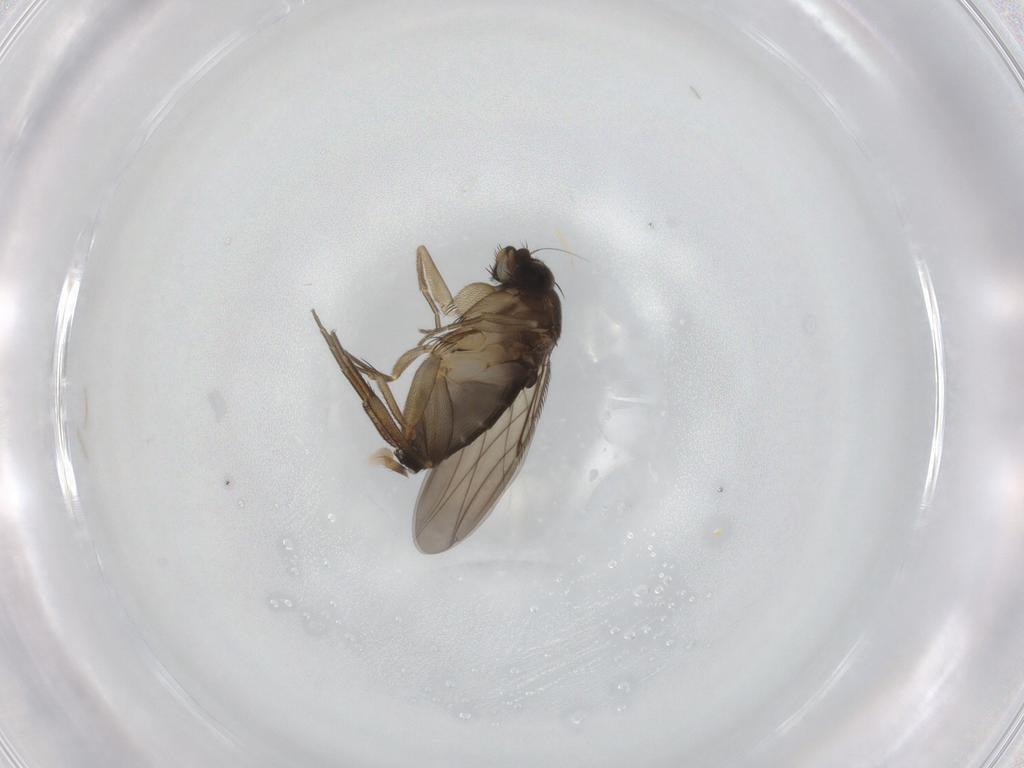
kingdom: Animalia
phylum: Arthropoda
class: Insecta
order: Diptera
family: Phoridae
